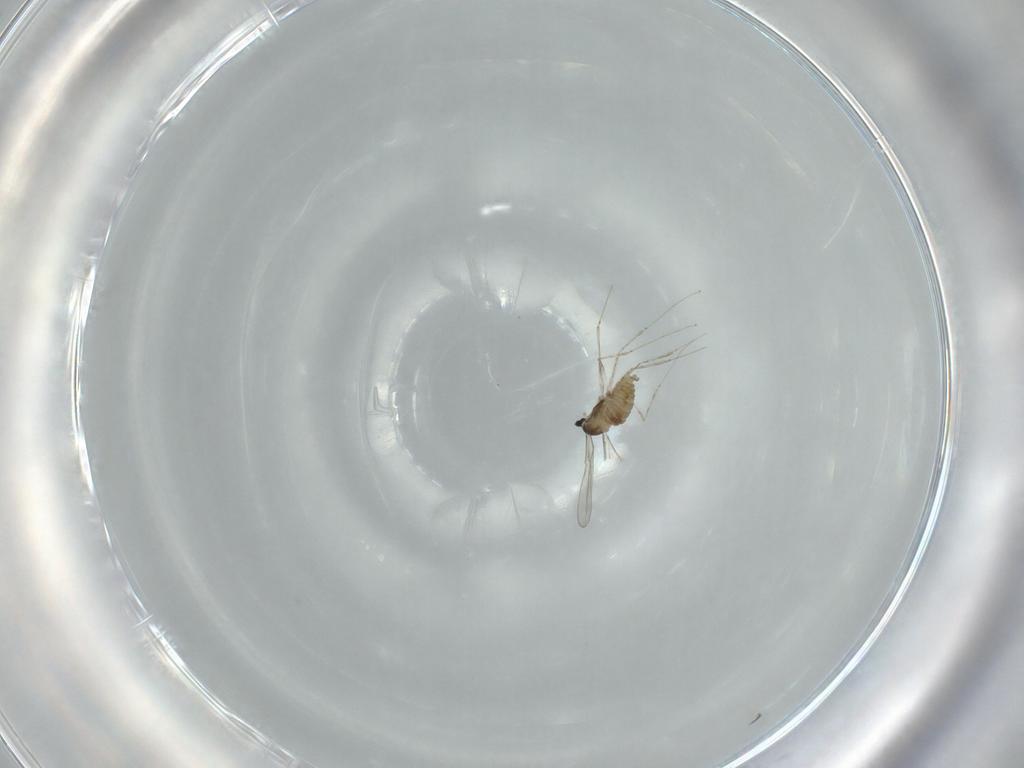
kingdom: Animalia
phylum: Arthropoda
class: Insecta
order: Diptera
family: Cecidomyiidae
